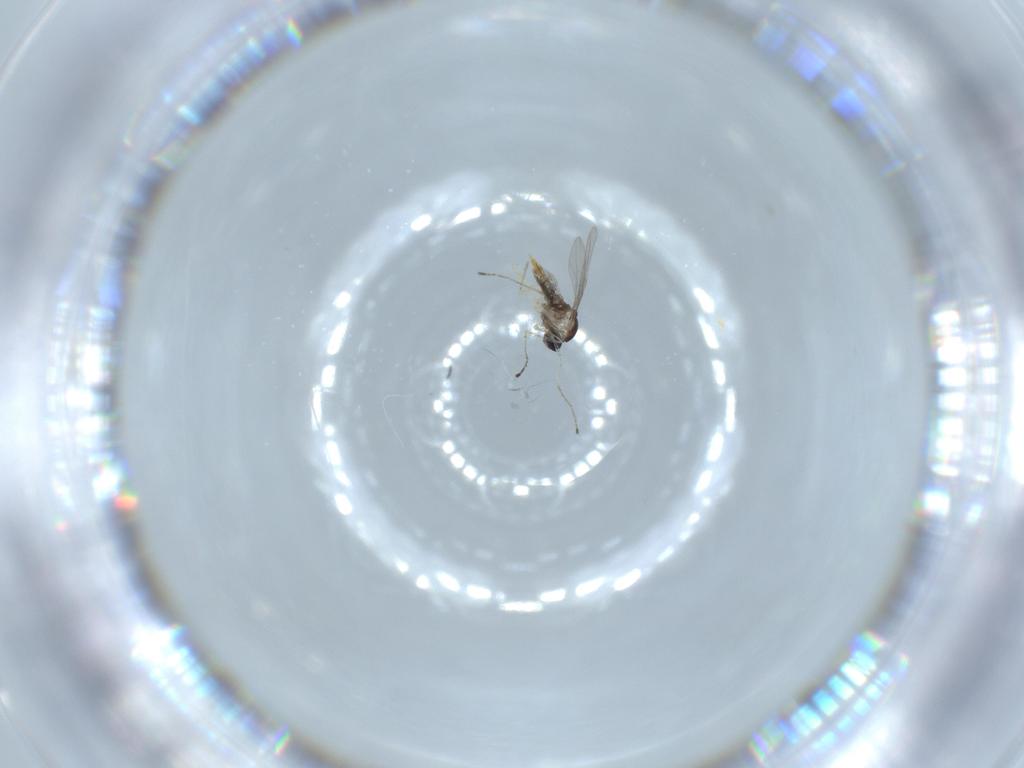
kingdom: Animalia
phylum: Arthropoda
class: Insecta
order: Diptera
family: Cecidomyiidae
